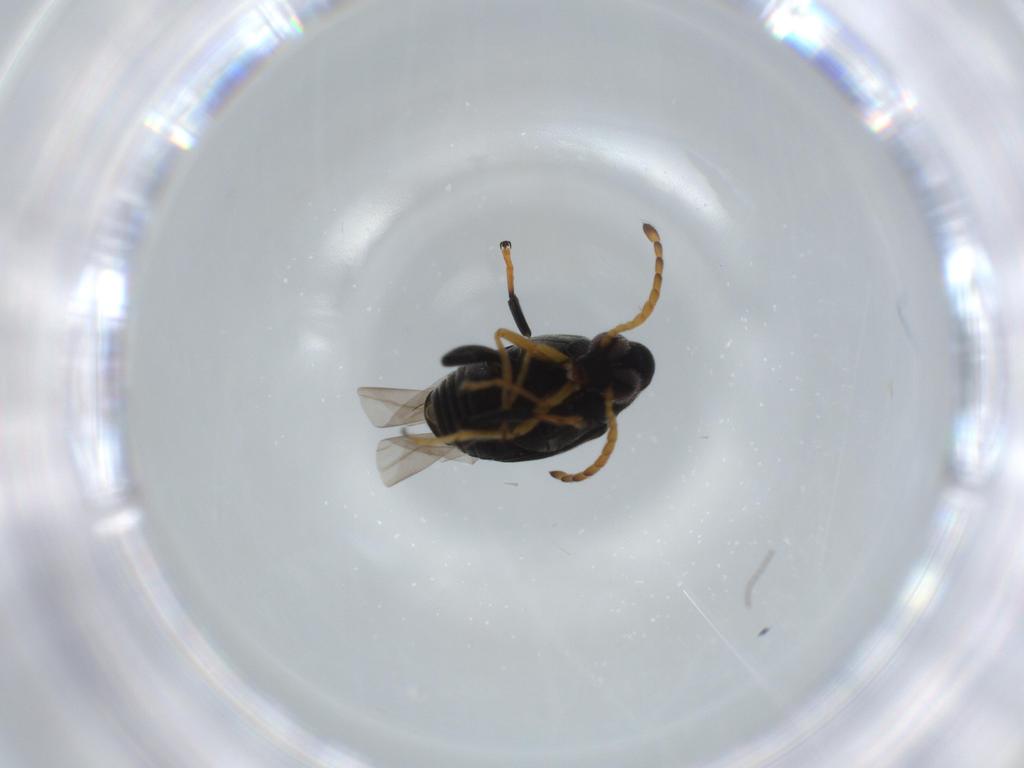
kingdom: Animalia
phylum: Arthropoda
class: Insecta
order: Coleoptera
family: Chrysomelidae
